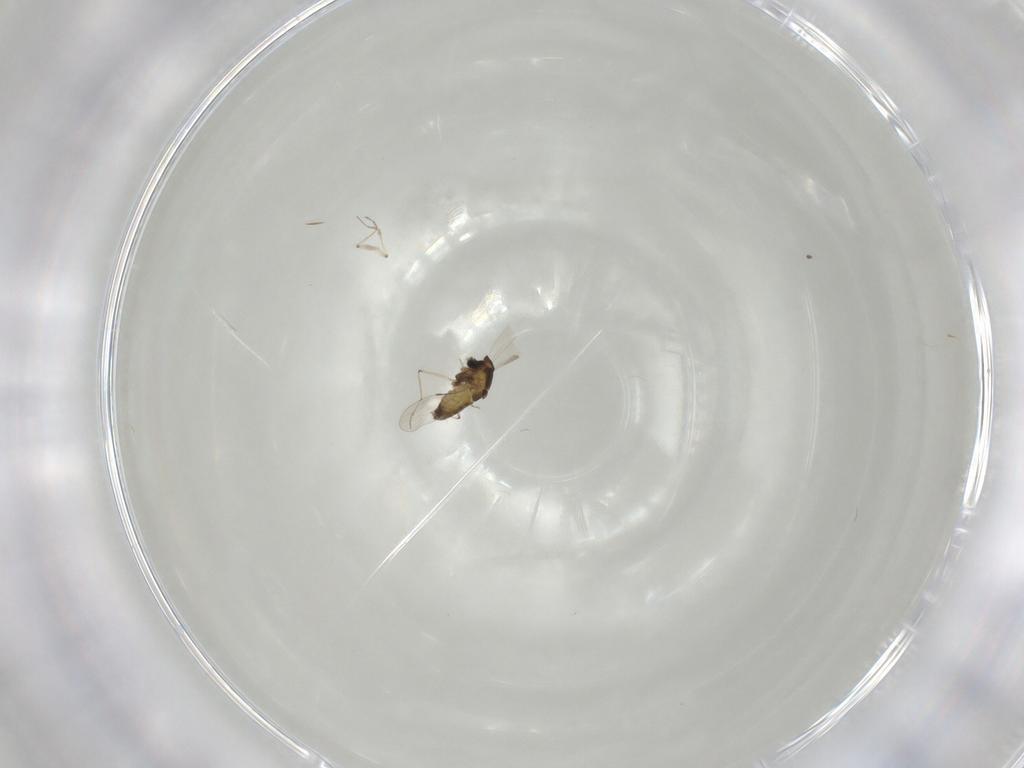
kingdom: Animalia
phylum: Arthropoda
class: Insecta
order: Diptera
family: Chironomidae
